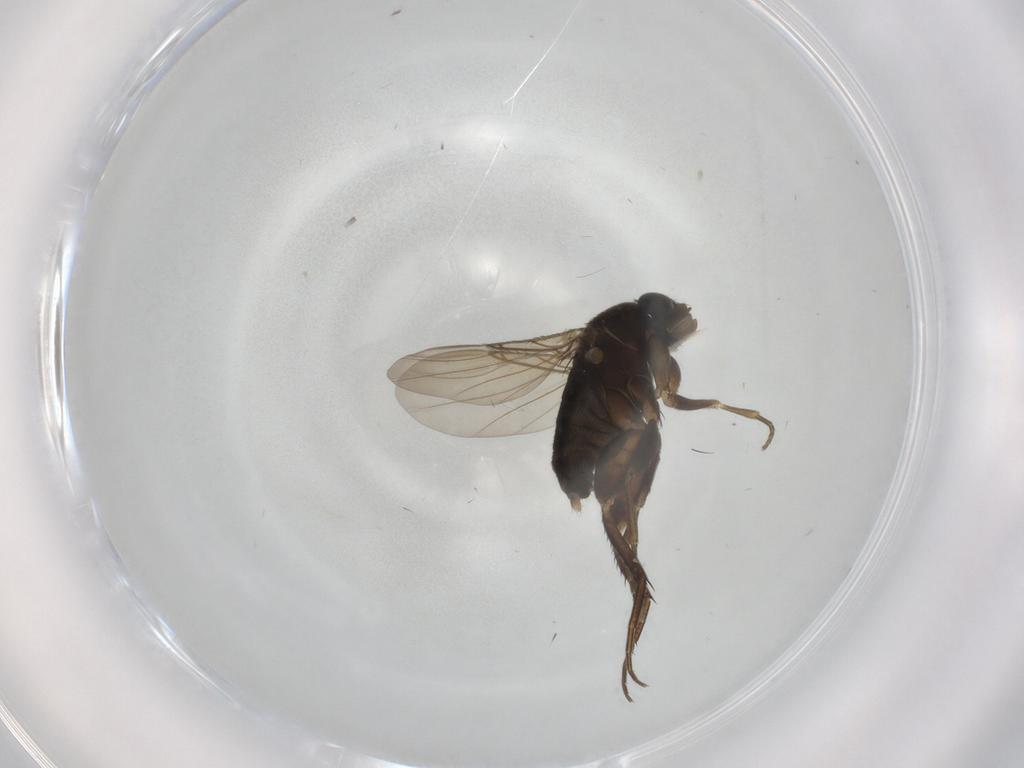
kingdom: Animalia
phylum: Arthropoda
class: Insecta
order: Diptera
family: Phoridae
